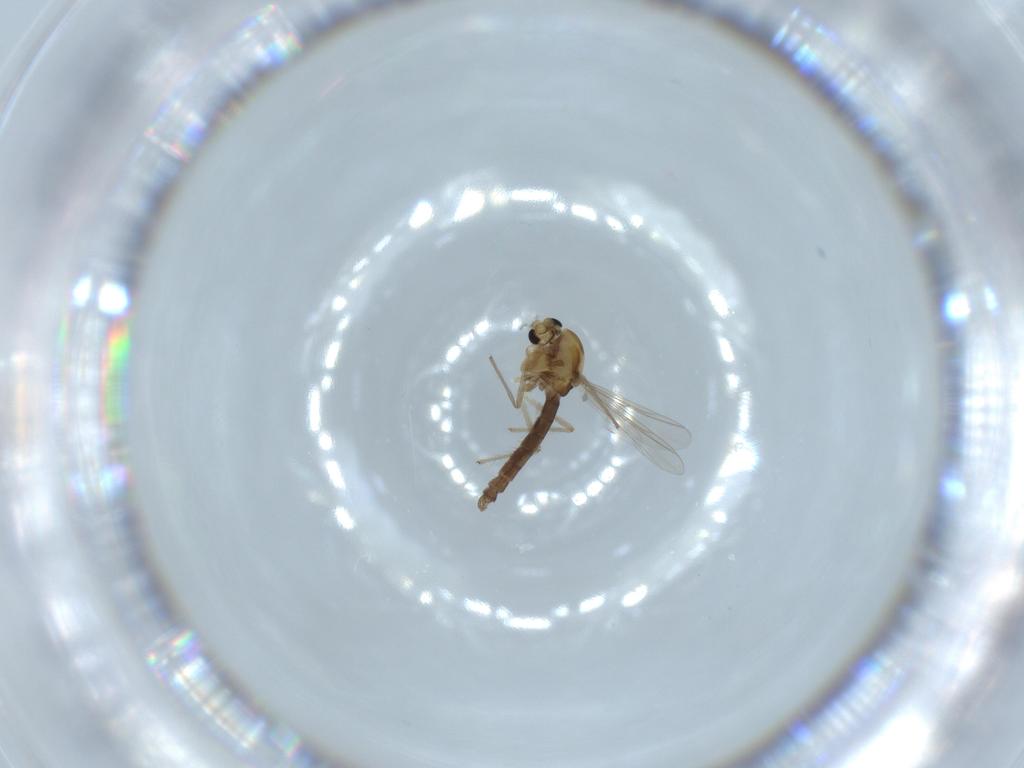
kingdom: Animalia
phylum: Arthropoda
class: Insecta
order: Diptera
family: Chironomidae
